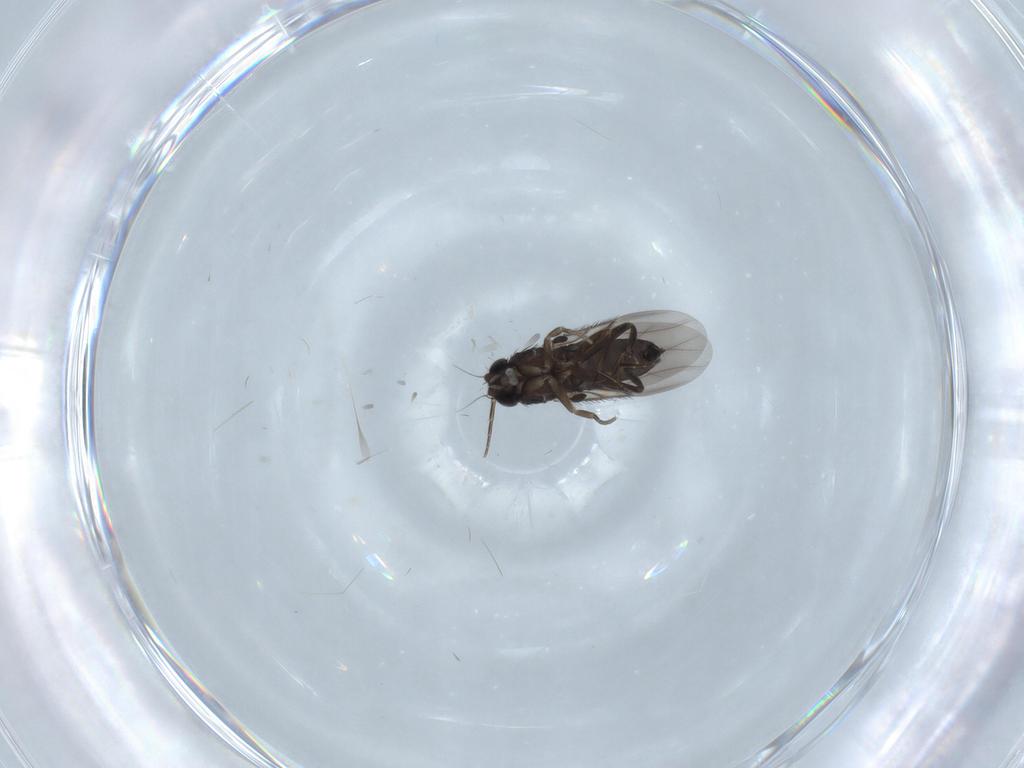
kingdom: Animalia
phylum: Arthropoda
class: Insecta
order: Diptera
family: Phoridae
